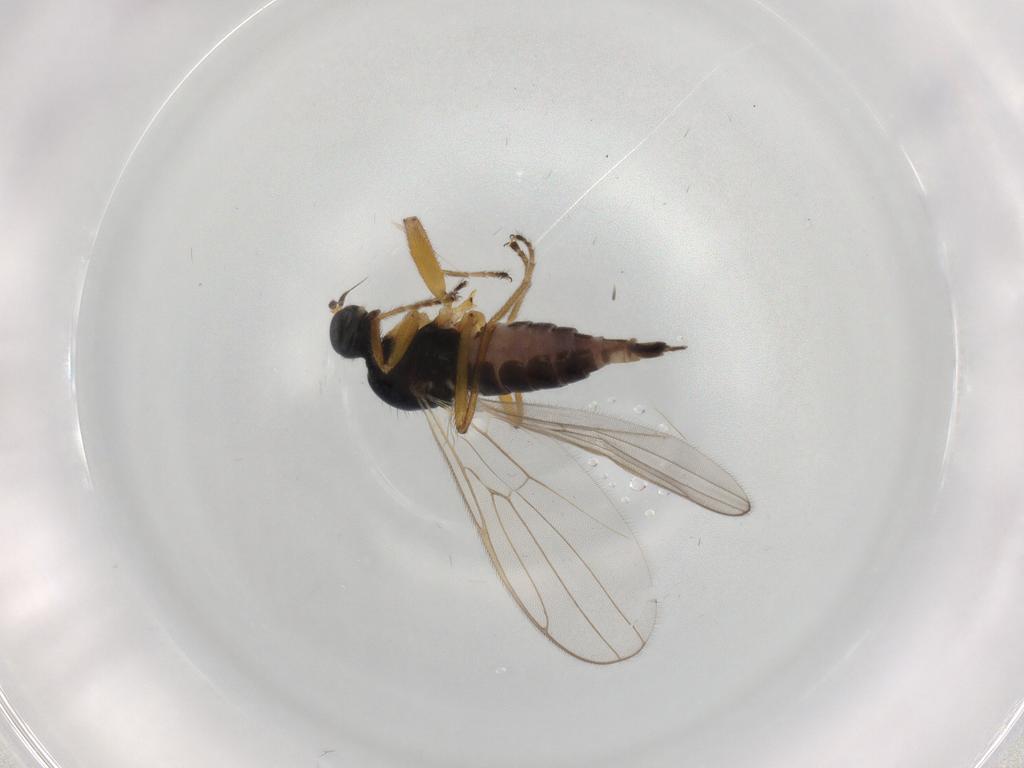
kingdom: Animalia
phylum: Arthropoda
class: Insecta
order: Diptera
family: Hybotidae
